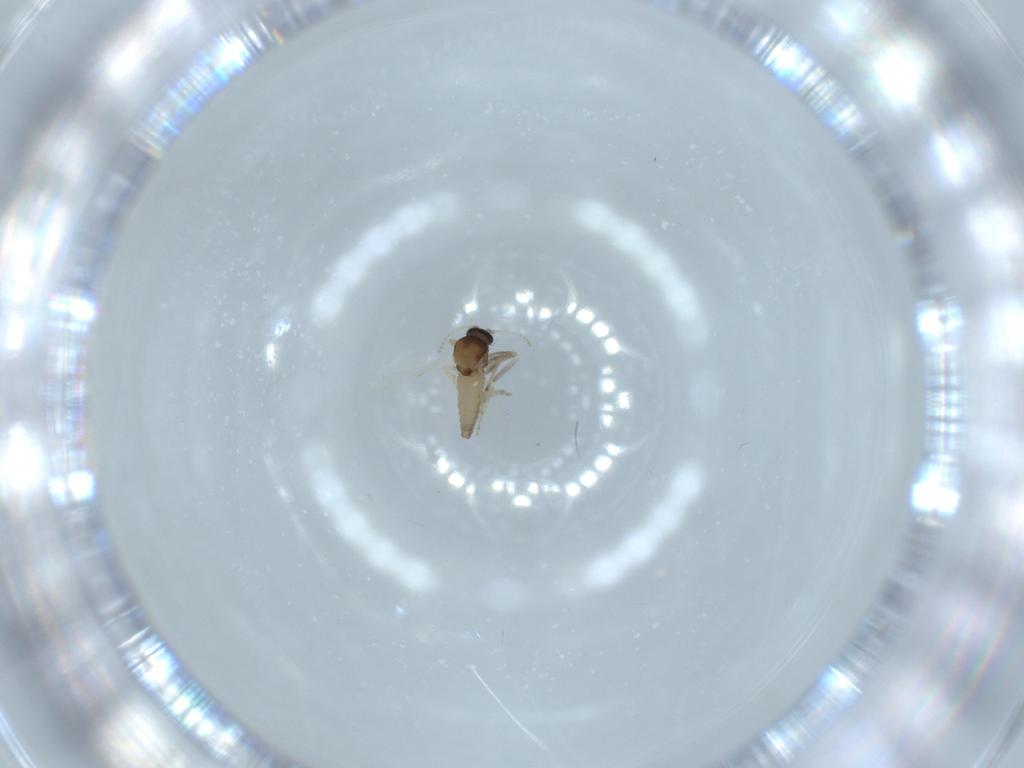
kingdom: Animalia
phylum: Arthropoda
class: Insecta
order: Diptera
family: Ceratopogonidae
